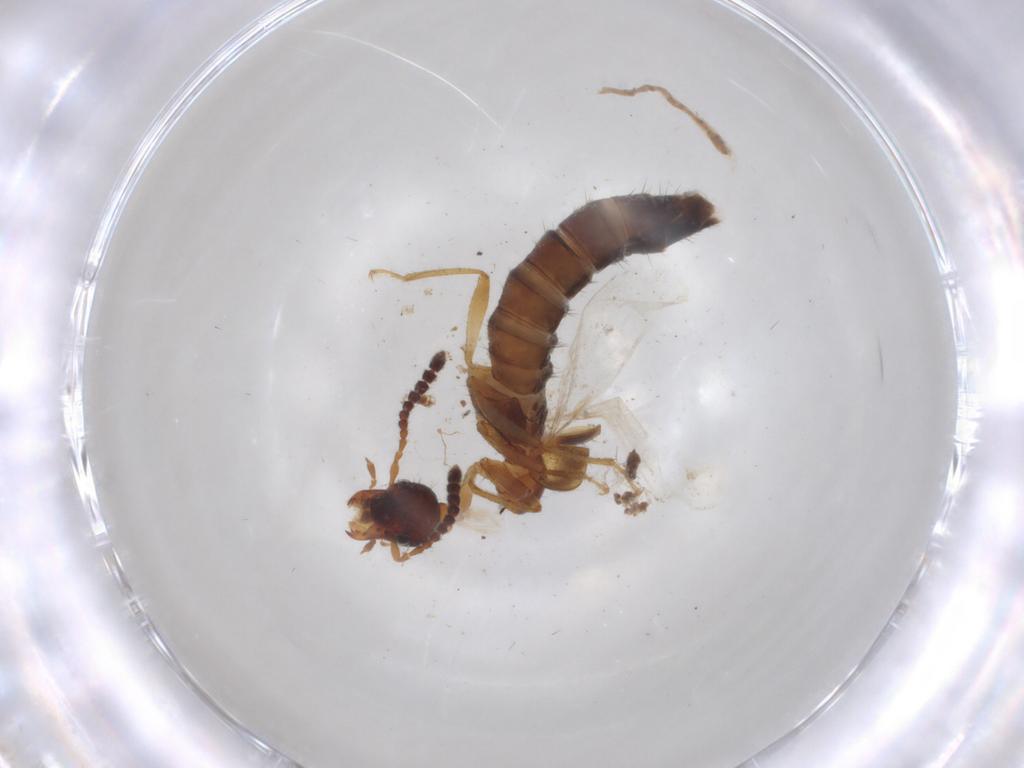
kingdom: Animalia
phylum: Arthropoda
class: Insecta
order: Coleoptera
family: Staphylinidae
